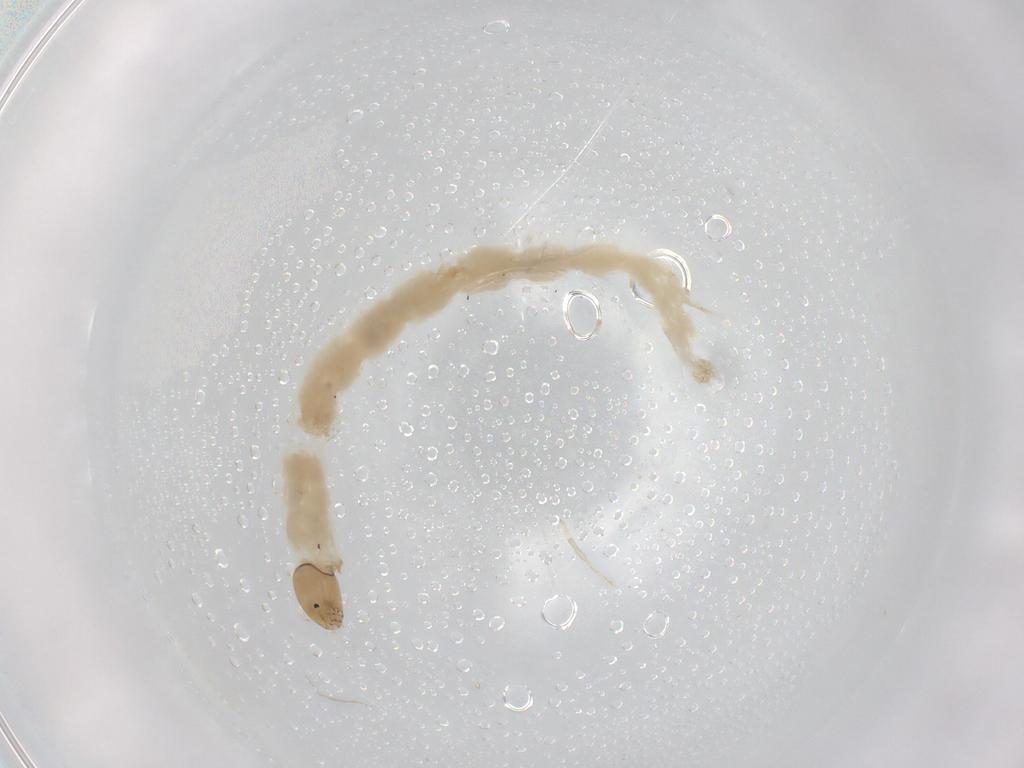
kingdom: Animalia
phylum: Arthropoda
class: Insecta
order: Diptera
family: Chironomidae
